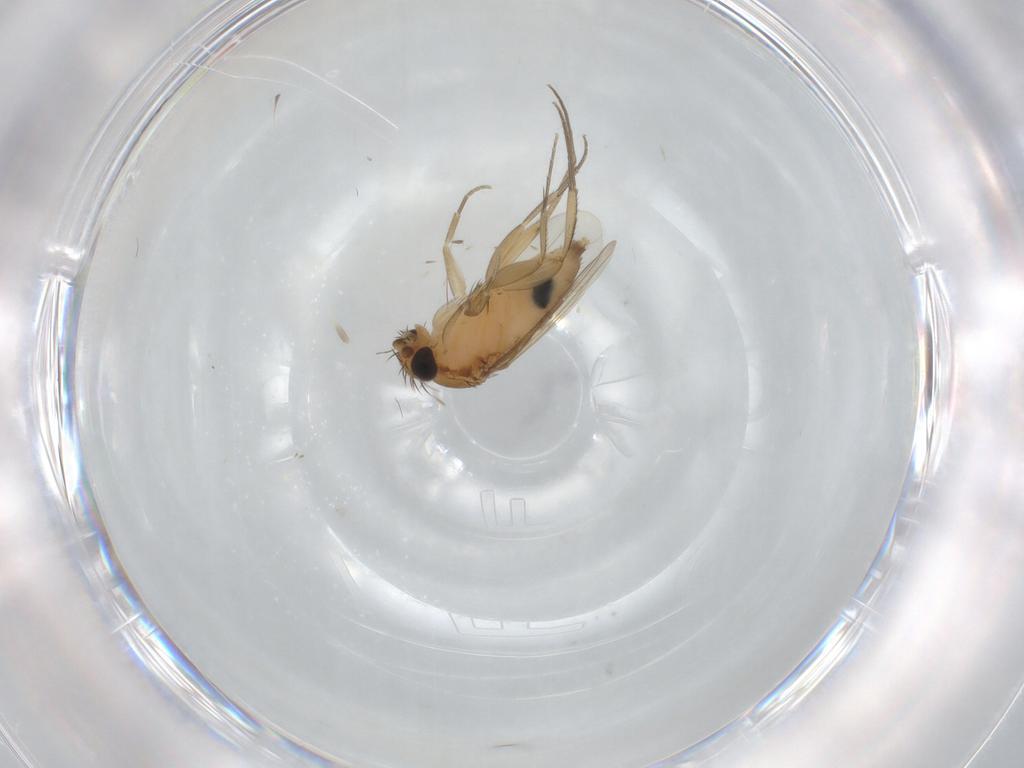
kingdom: Animalia
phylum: Arthropoda
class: Insecta
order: Diptera
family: Phoridae
